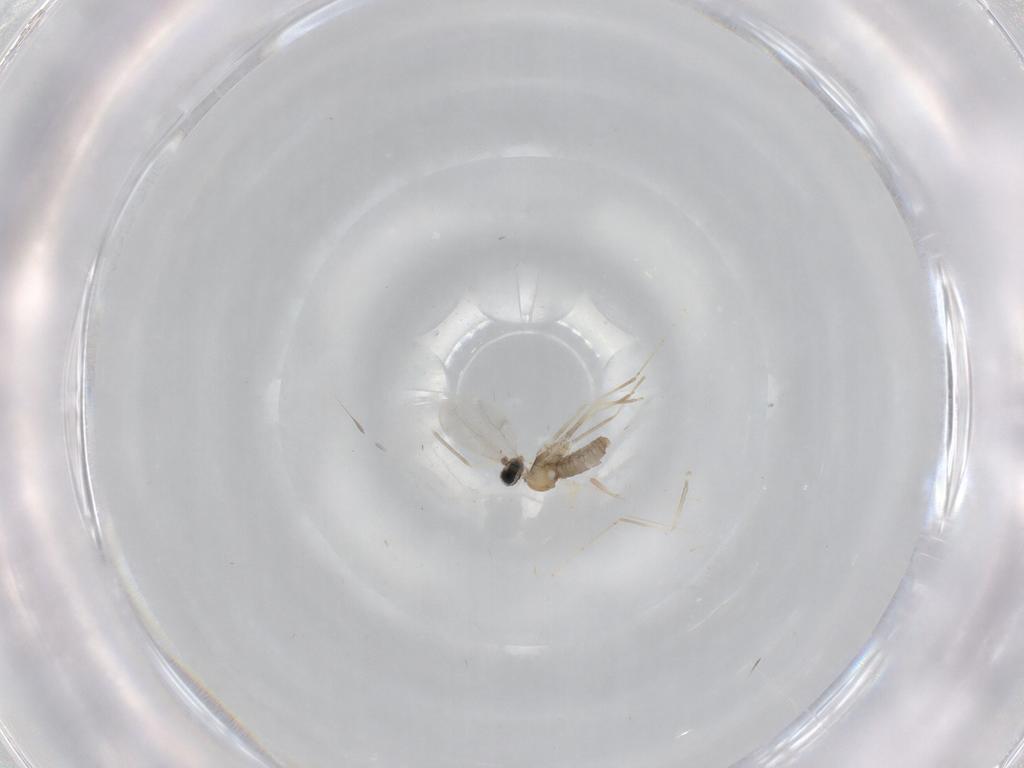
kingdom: Animalia
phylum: Arthropoda
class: Insecta
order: Diptera
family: Cecidomyiidae
